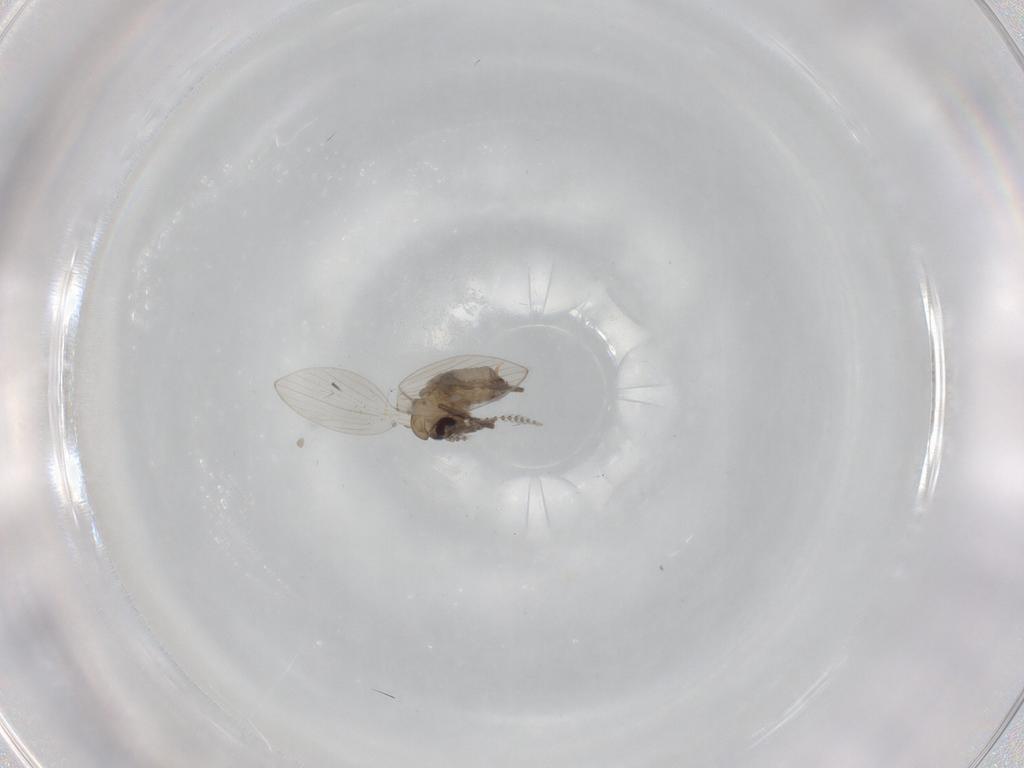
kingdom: Animalia
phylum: Arthropoda
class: Insecta
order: Diptera
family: Psychodidae
